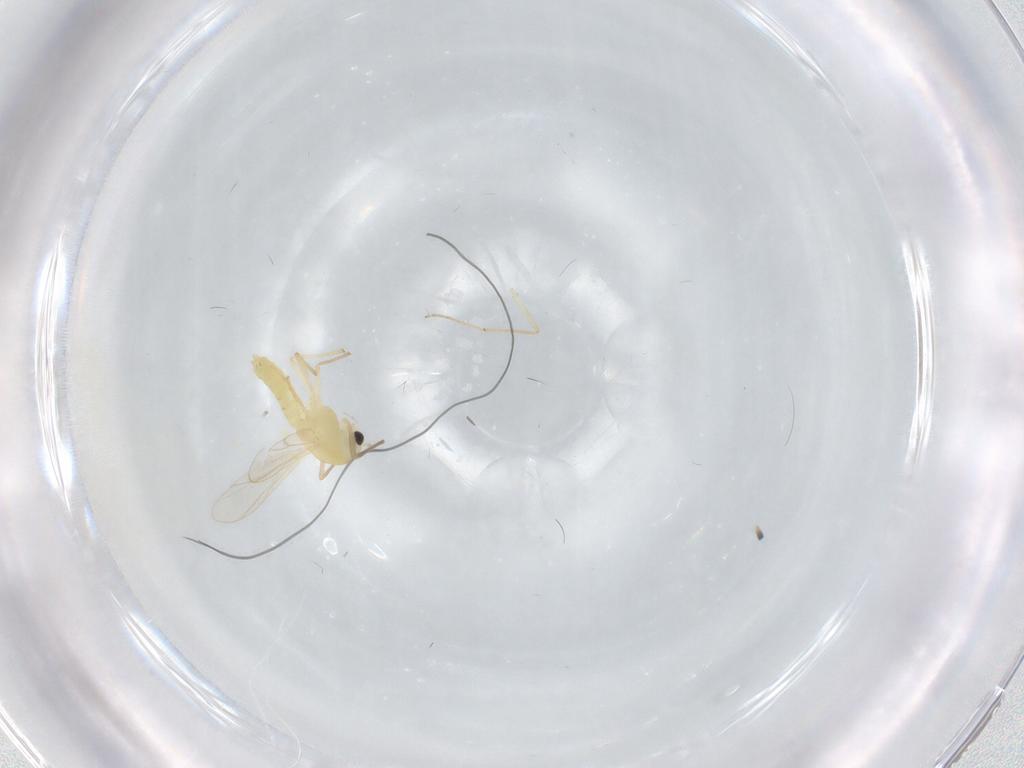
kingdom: Animalia
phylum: Arthropoda
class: Insecta
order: Diptera
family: Chironomidae
